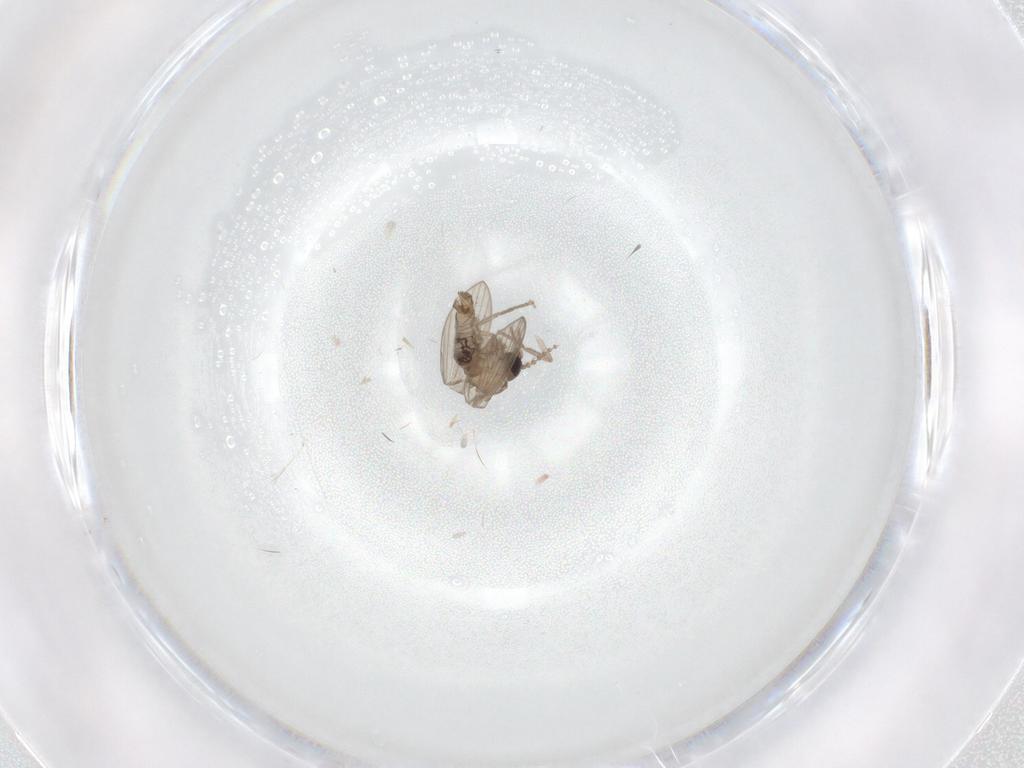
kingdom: Animalia
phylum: Arthropoda
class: Insecta
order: Diptera
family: Psychodidae
